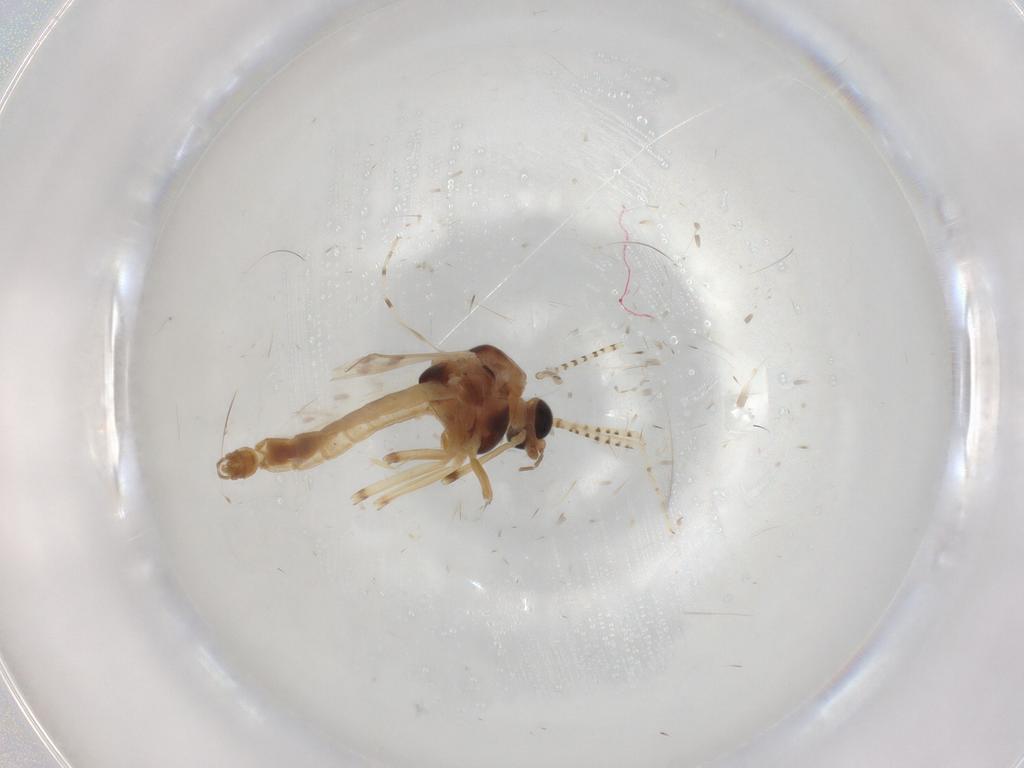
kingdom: Animalia
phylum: Arthropoda
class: Insecta
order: Diptera
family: Chironomidae
